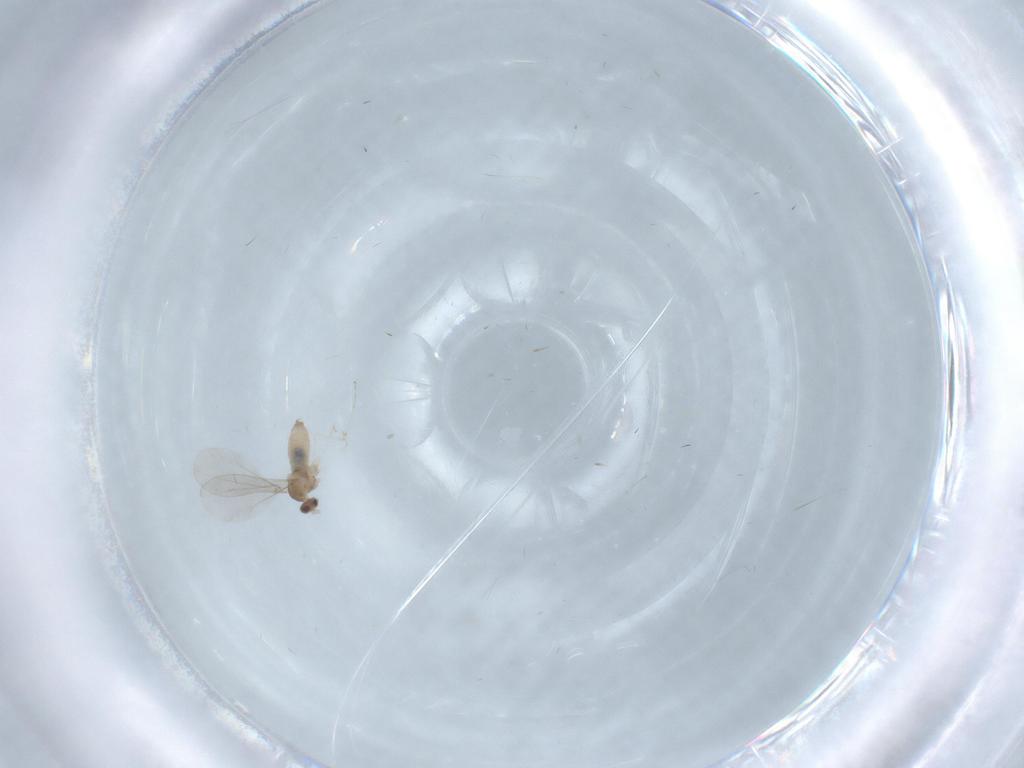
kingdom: Animalia
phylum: Arthropoda
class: Insecta
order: Diptera
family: Cecidomyiidae
